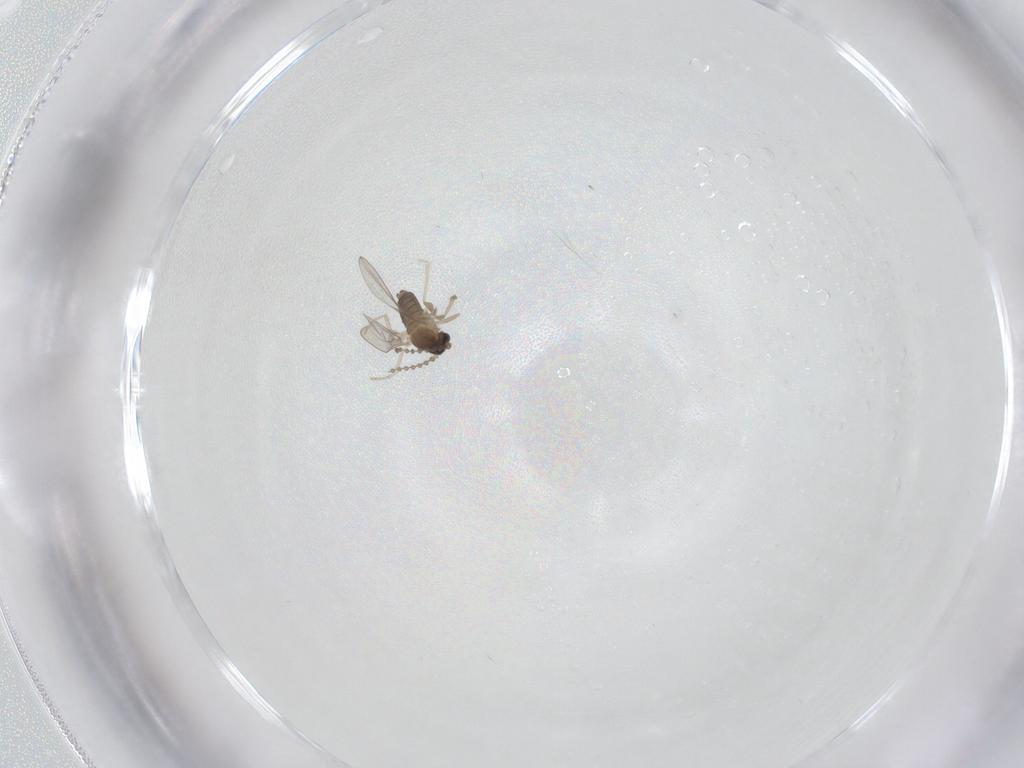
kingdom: Animalia
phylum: Arthropoda
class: Insecta
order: Diptera
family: Cecidomyiidae
